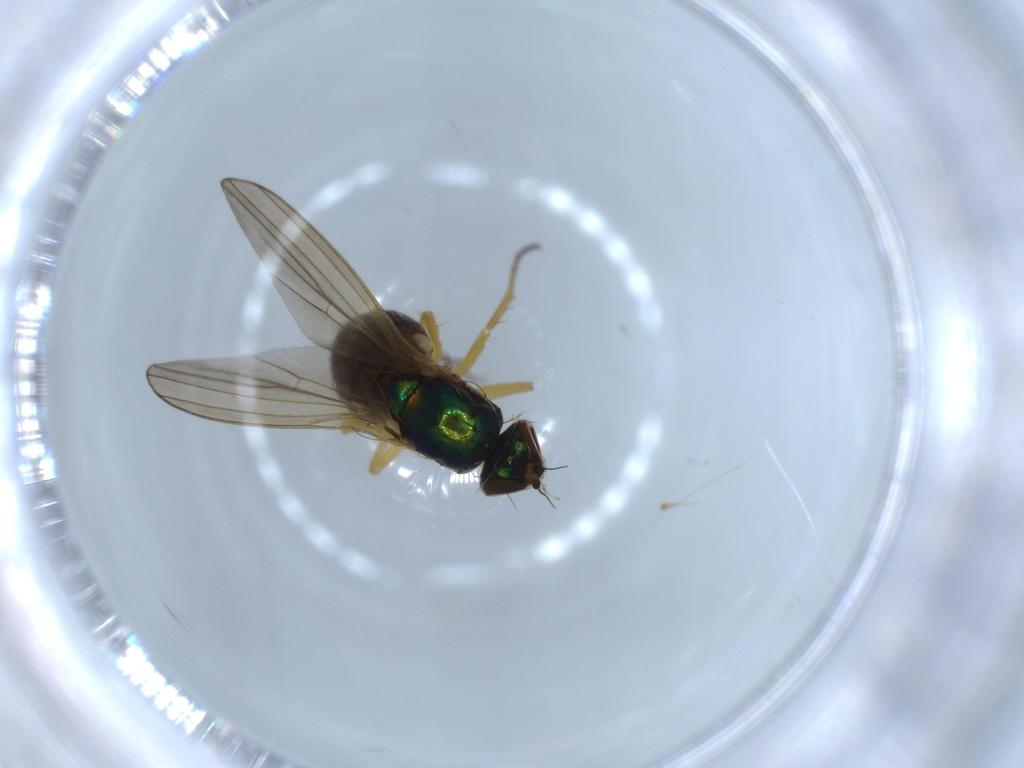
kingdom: Animalia
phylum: Arthropoda
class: Insecta
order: Diptera
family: Dolichopodidae
